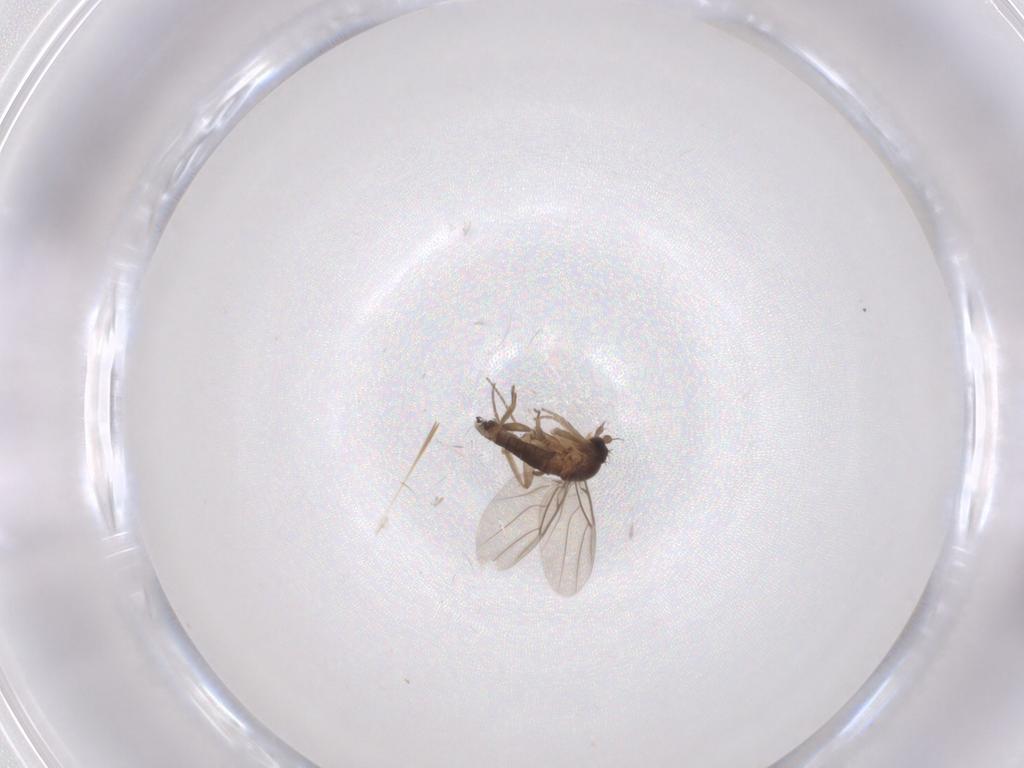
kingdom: Animalia
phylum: Arthropoda
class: Insecta
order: Diptera
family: Phoridae
